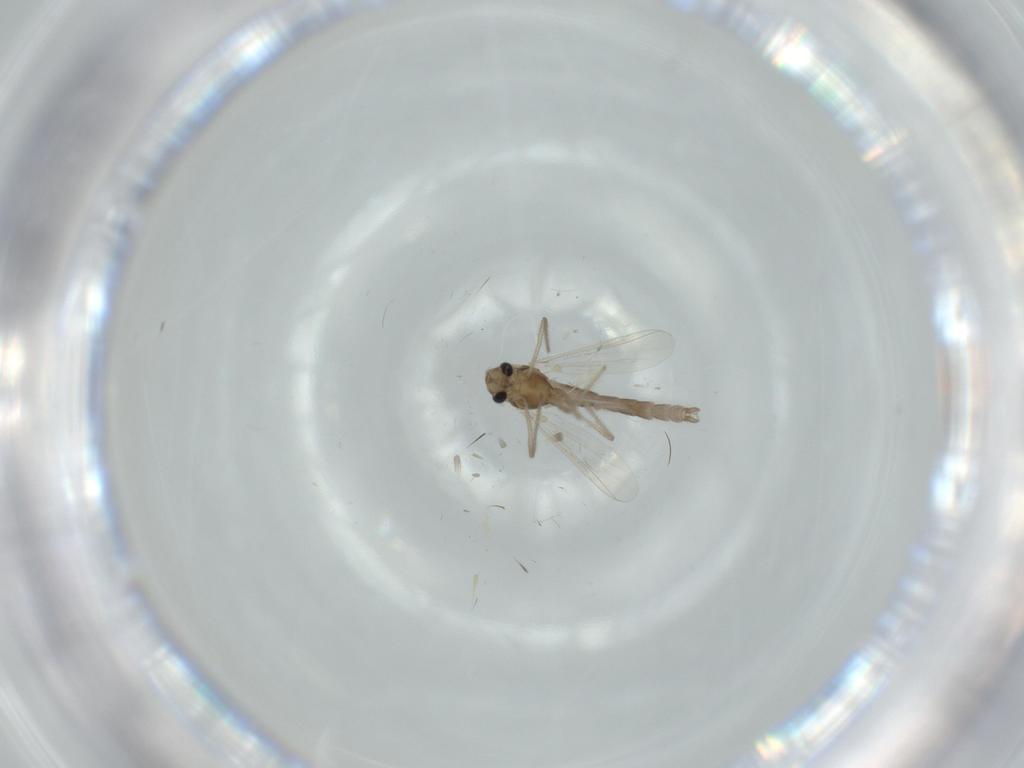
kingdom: Animalia
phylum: Arthropoda
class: Insecta
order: Diptera
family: Chironomidae
